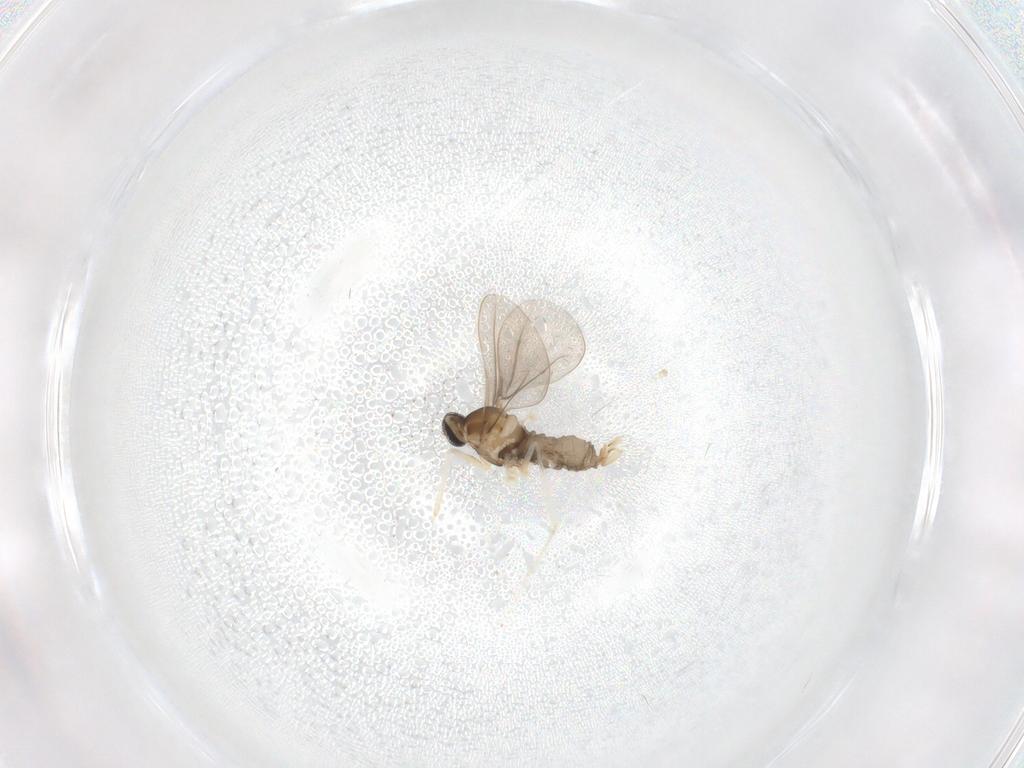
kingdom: Animalia
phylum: Arthropoda
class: Insecta
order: Diptera
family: Cecidomyiidae
